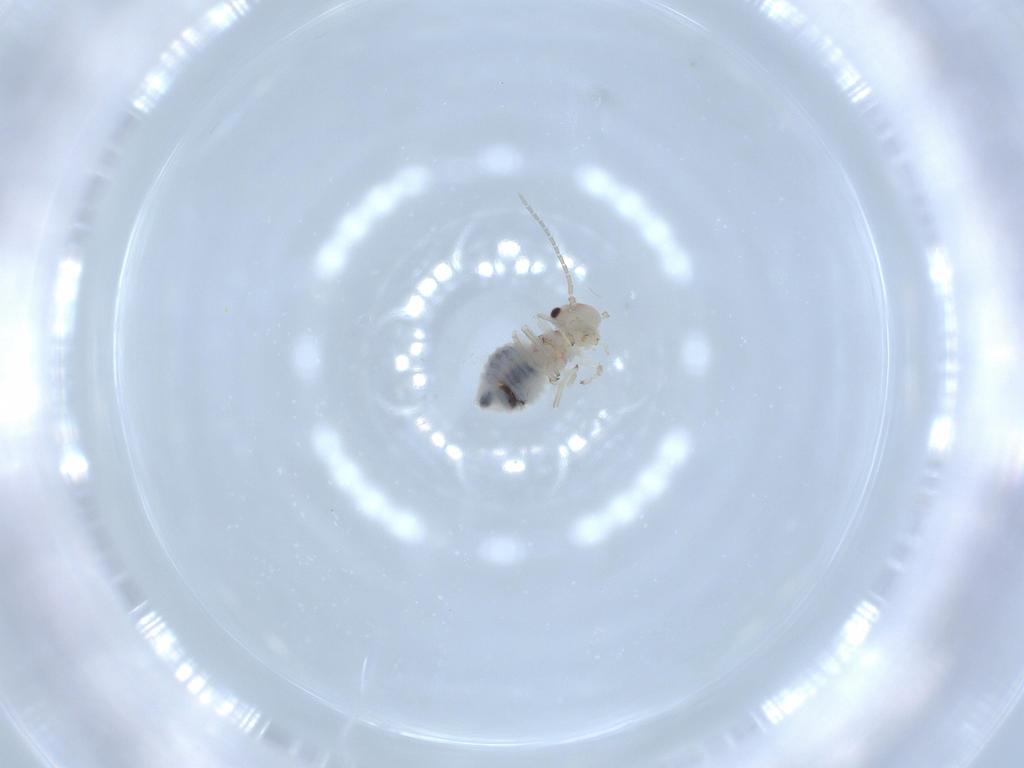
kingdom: Animalia
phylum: Arthropoda
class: Insecta
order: Psocodea
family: Amphipsocidae
